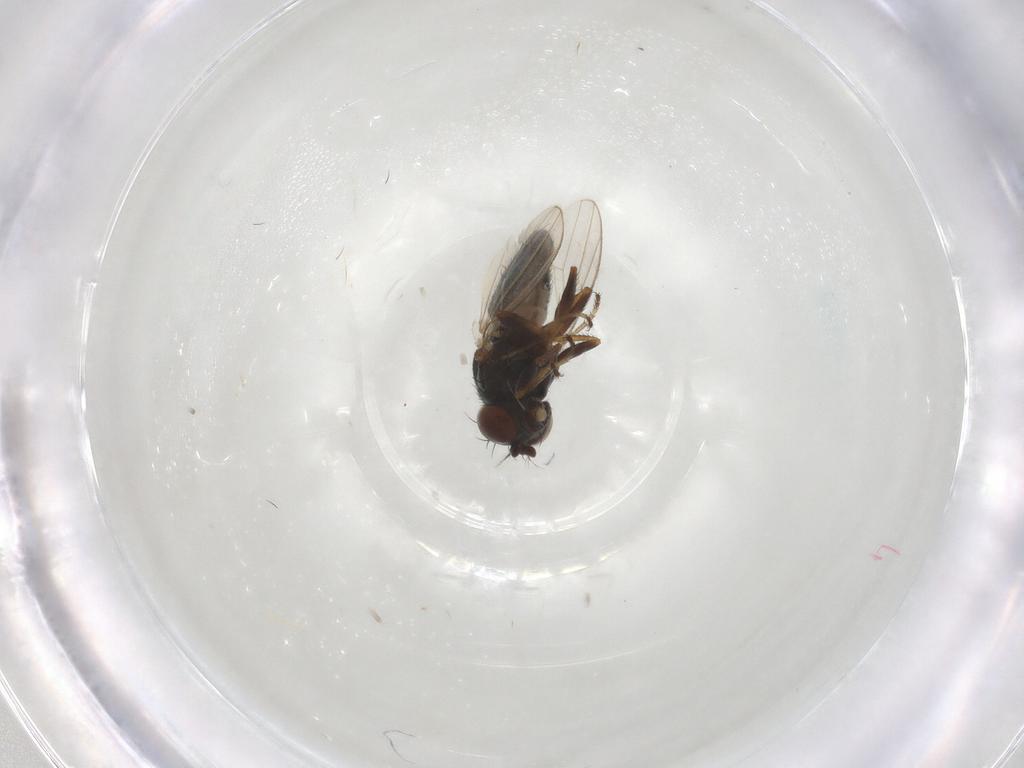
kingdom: Animalia
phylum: Arthropoda
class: Insecta
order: Diptera
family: Ephydridae
